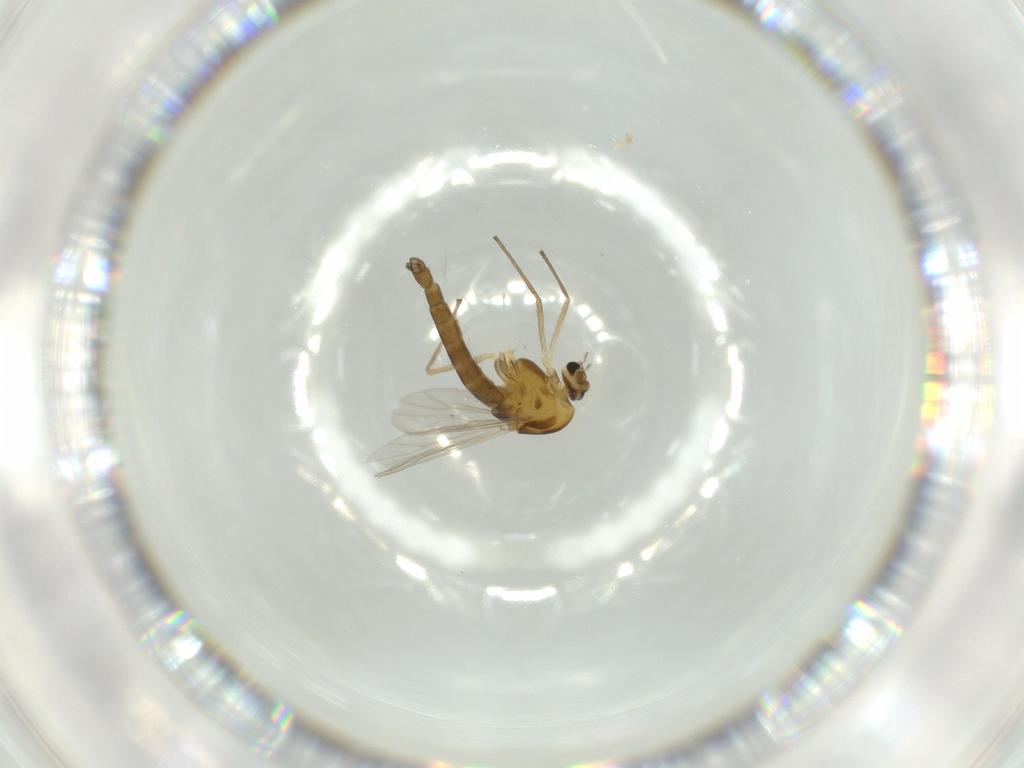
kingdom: Animalia
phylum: Arthropoda
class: Insecta
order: Diptera
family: Chironomidae
